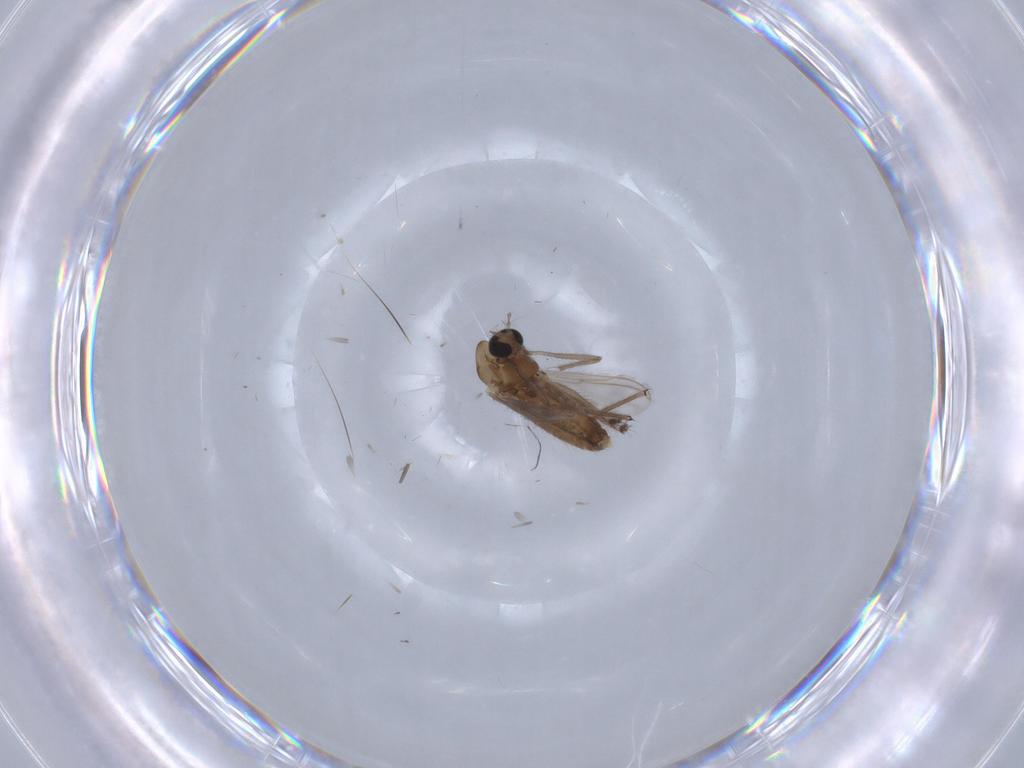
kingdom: Animalia
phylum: Arthropoda
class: Insecta
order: Diptera
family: Chironomidae
